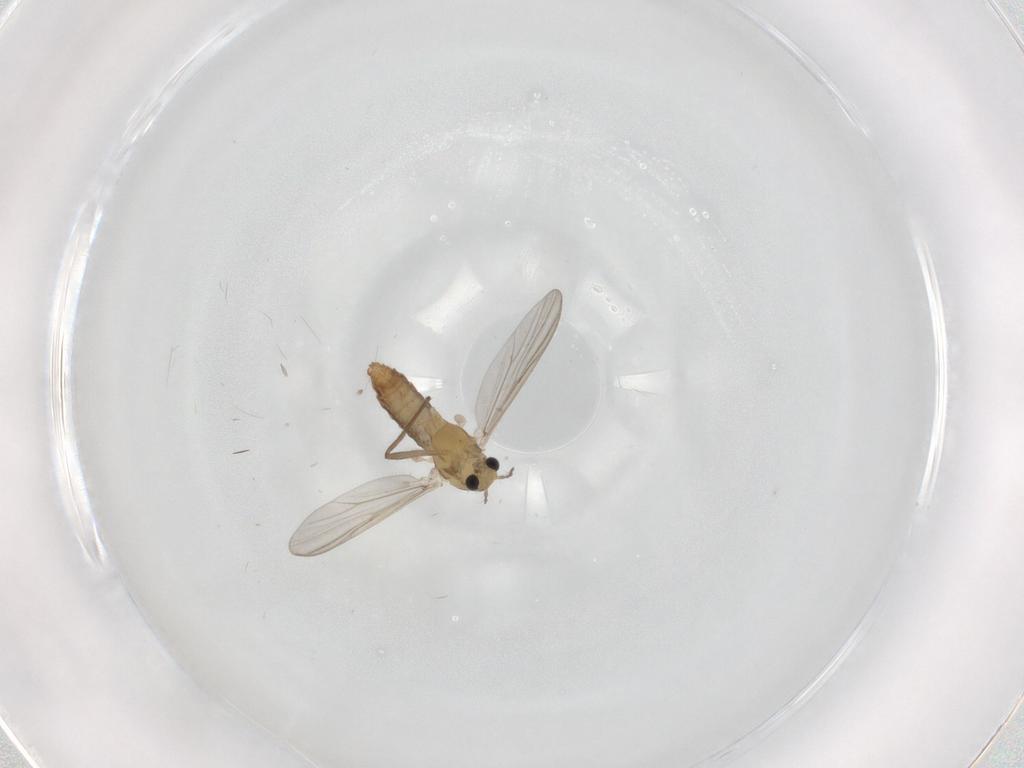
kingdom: Animalia
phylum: Arthropoda
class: Insecta
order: Diptera
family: Chironomidae
